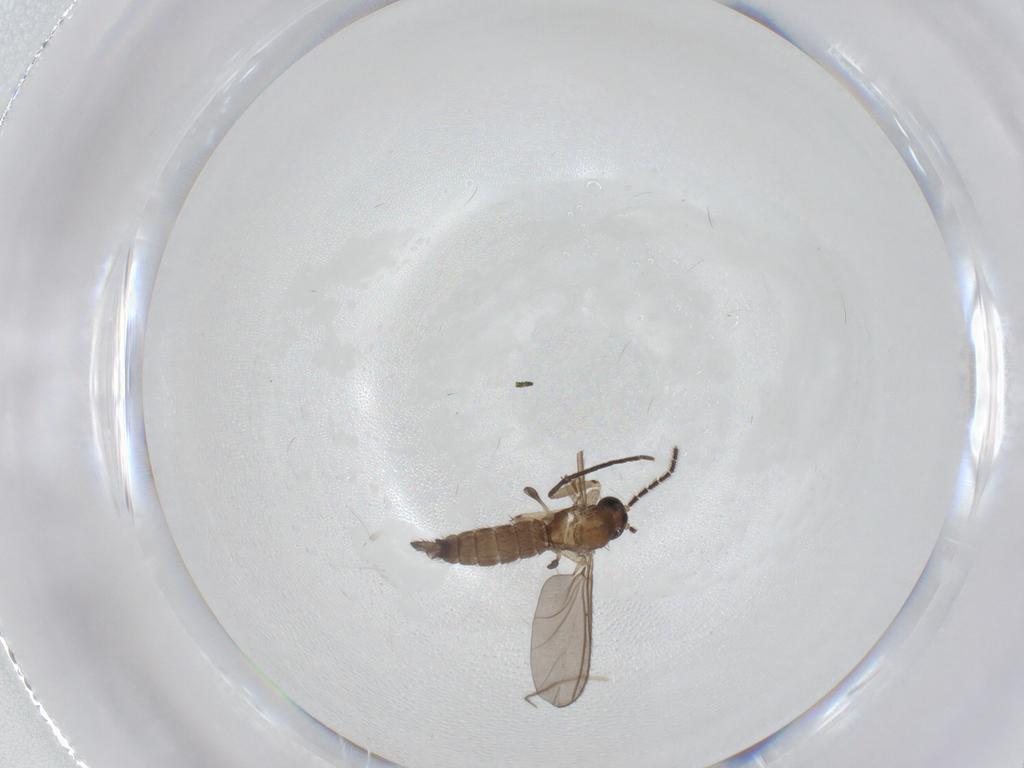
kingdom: Animalia
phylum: Arthropoda
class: Insecta
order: Diptera
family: Sciaridae
